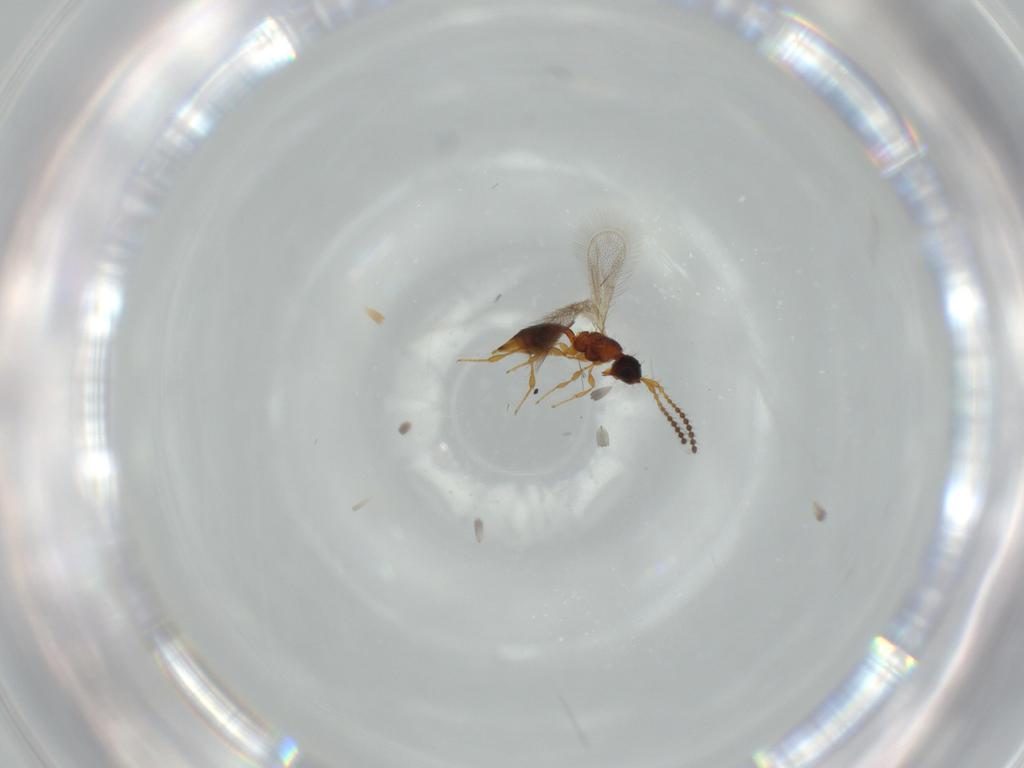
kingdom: Animalia
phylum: Arthropoda
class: Insecta
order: Hymenoptera
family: Diapriidae
